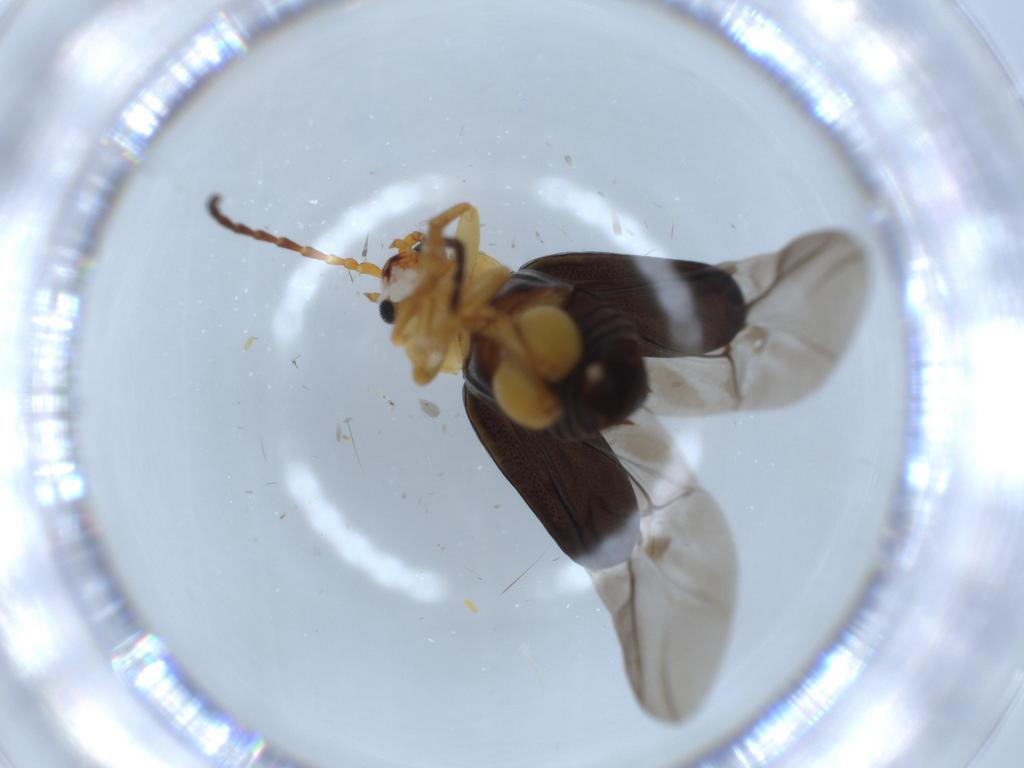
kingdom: Animalia
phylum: Arthropoda
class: Insecta
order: Coleoptera
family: Chrysomelidae
